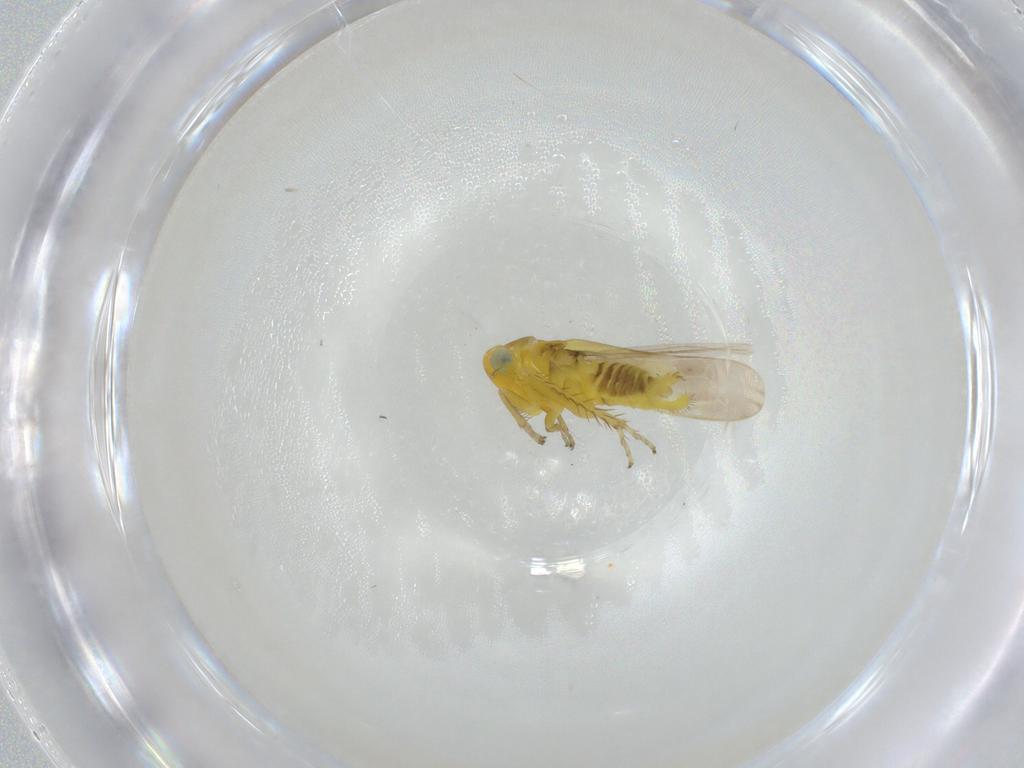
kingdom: Animalia
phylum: Arthropoda
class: Insecta
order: Hemiptera
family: Cicadellidae
